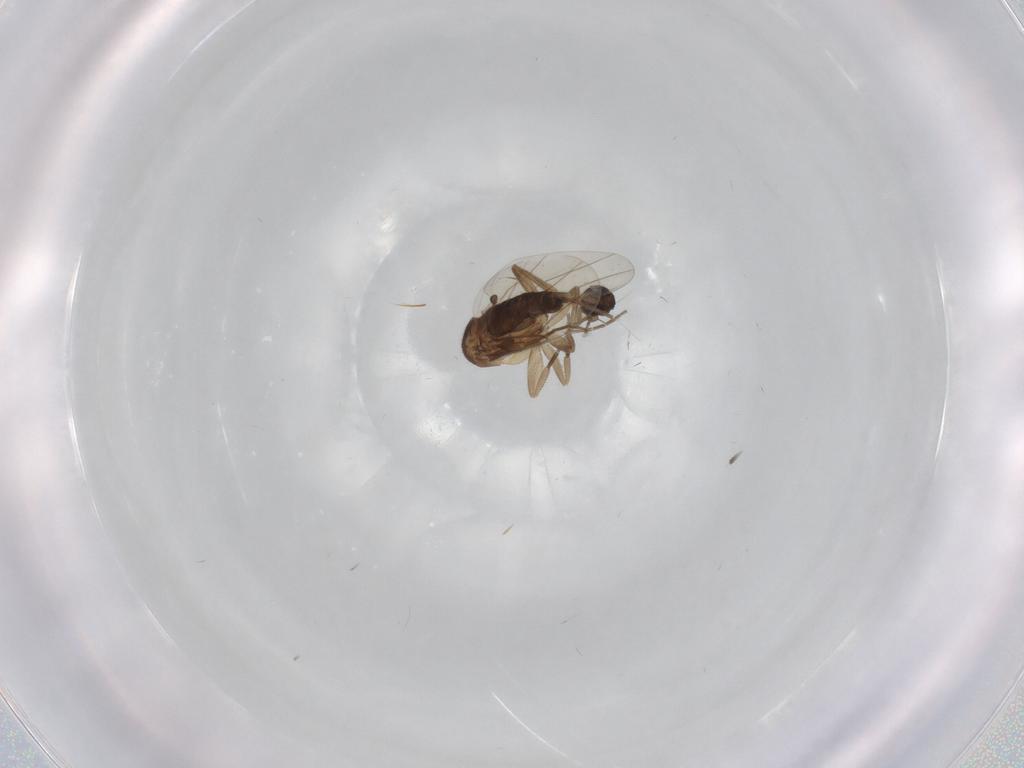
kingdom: Animalia
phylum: Arthropoda
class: Insecta
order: Diptera
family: Phoridae
